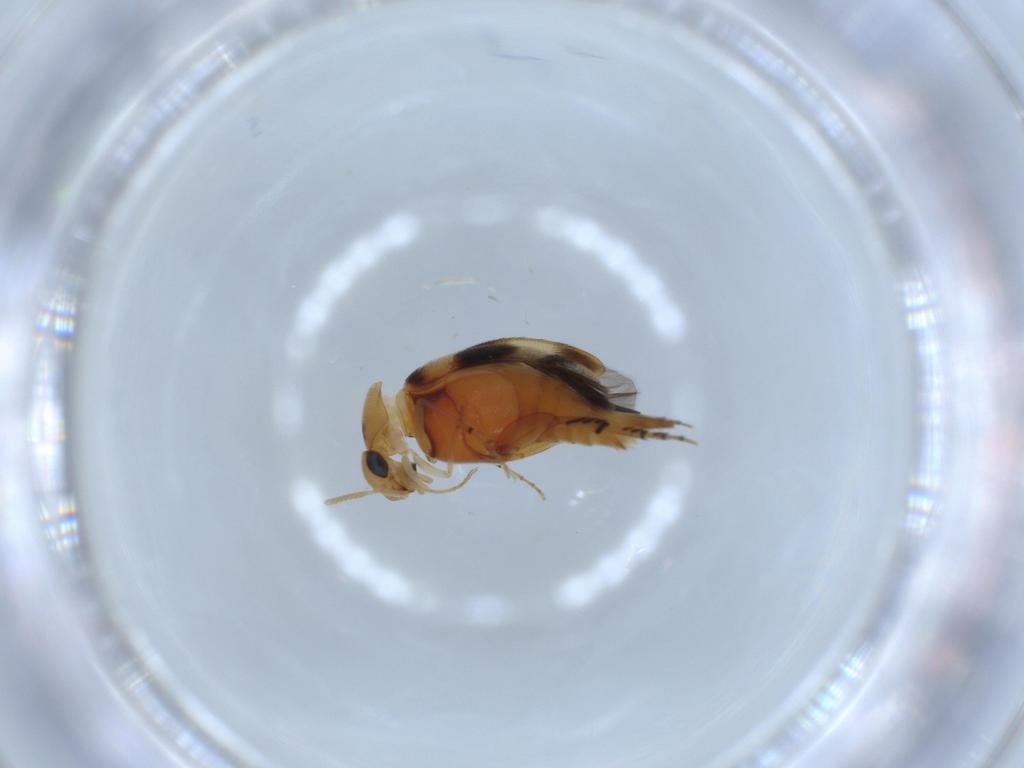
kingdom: Animalia
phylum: Arthropoda
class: Insecta
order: Coleoptera
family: Mordellidae
